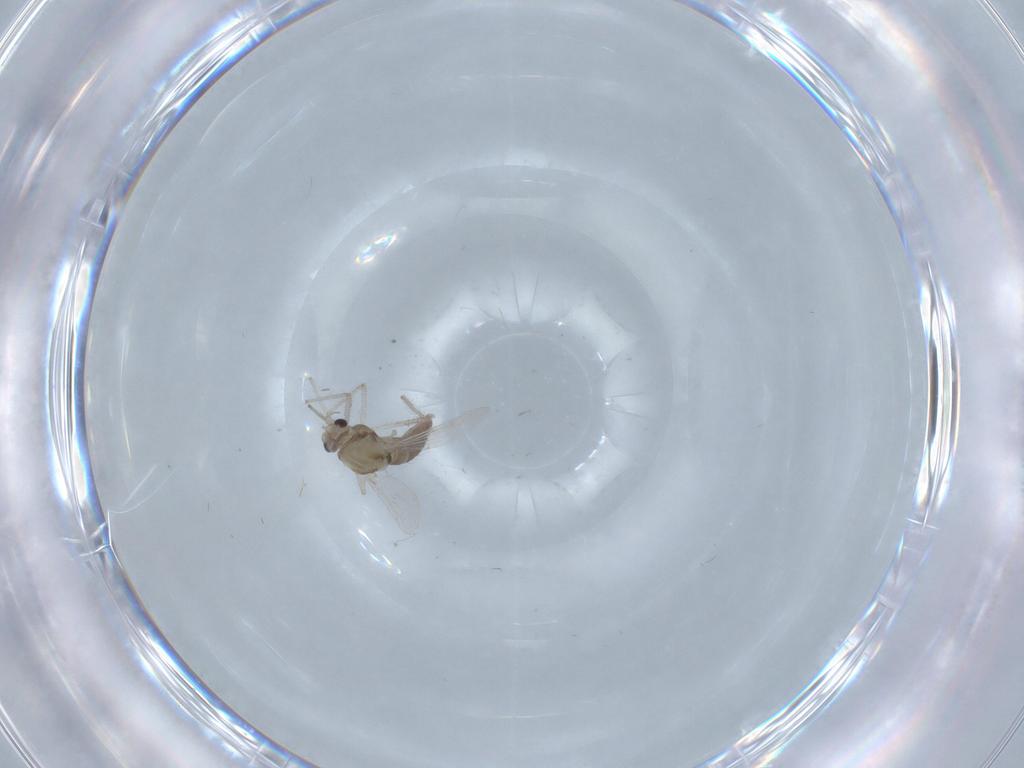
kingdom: Animalia
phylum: Arthropoda
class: Insecta
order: Diptera
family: Chironomidae
